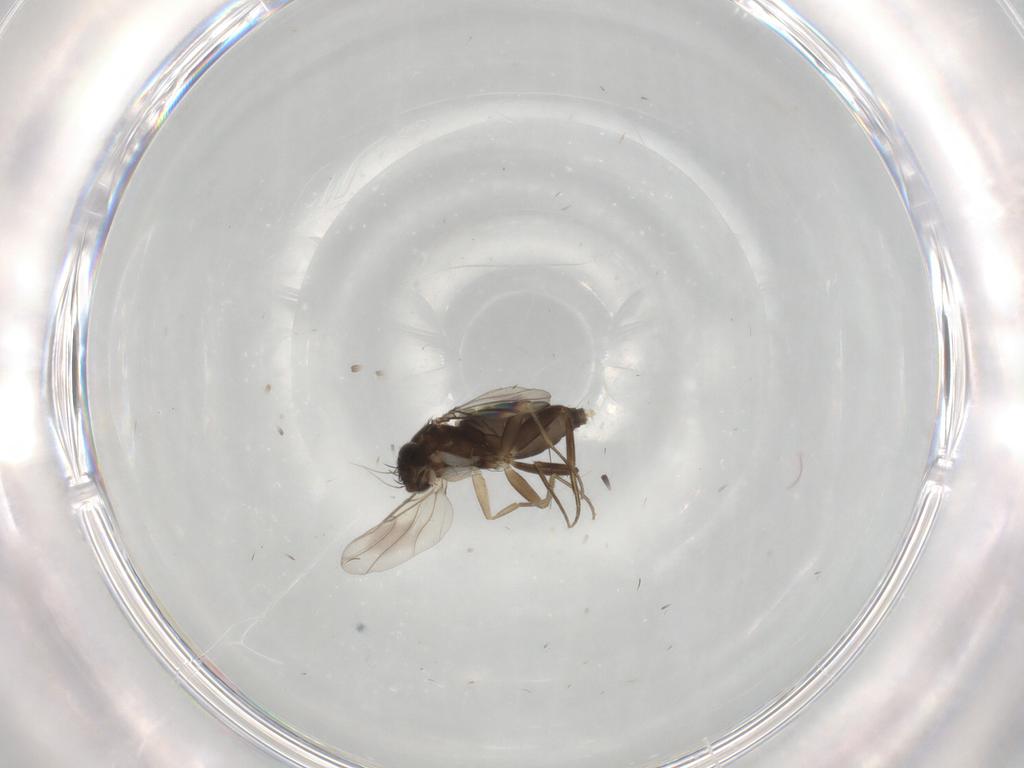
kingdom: Animalia
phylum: Arthropoda
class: Insecta
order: Diptera
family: Phoridae
